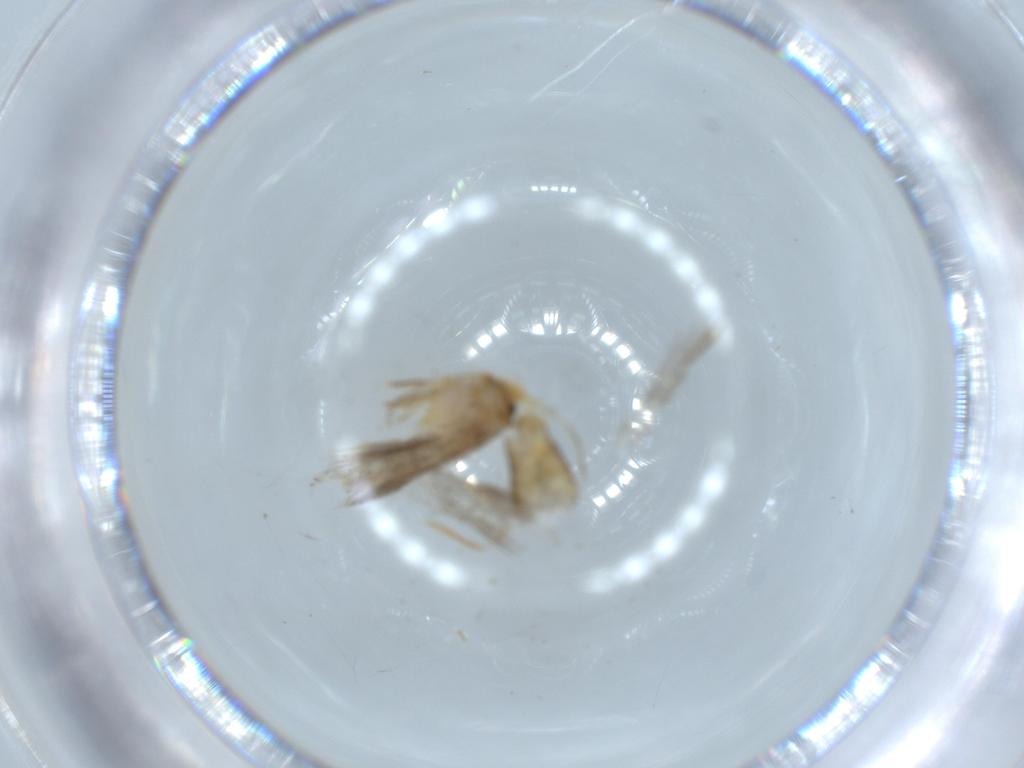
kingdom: Animalia
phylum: Arthropoda
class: Insecta
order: Lepidoptera
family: Nepticulidae
